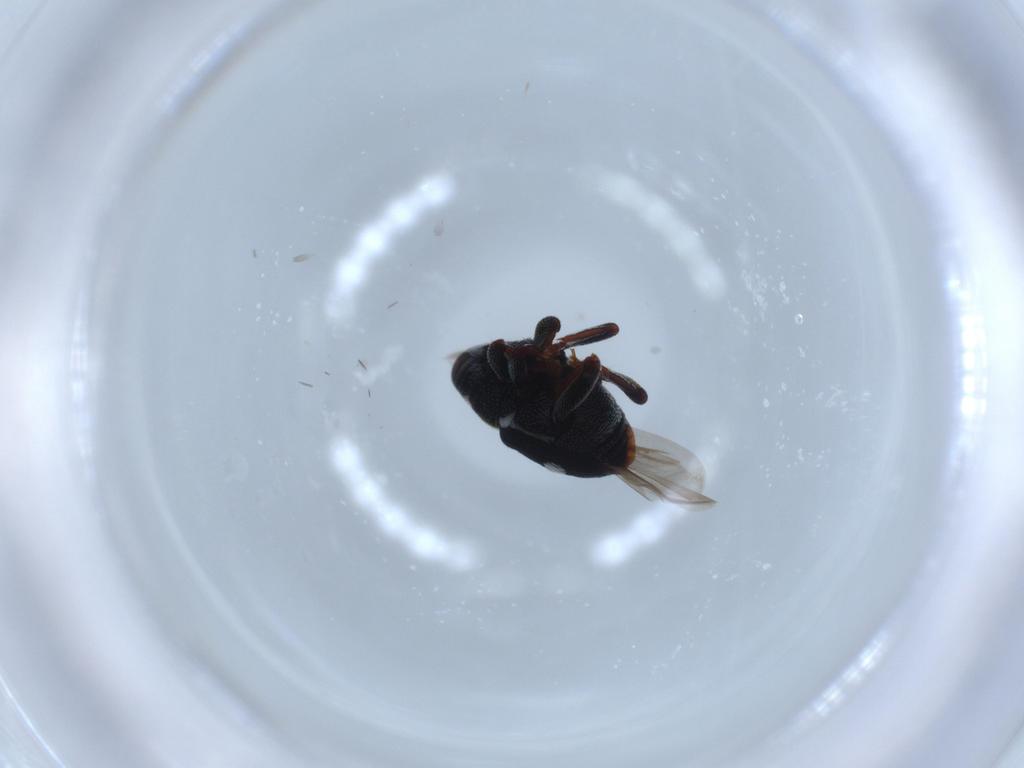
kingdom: Animalia
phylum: Arthropoda
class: Insecta
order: Coleoptera
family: Curculionidae
